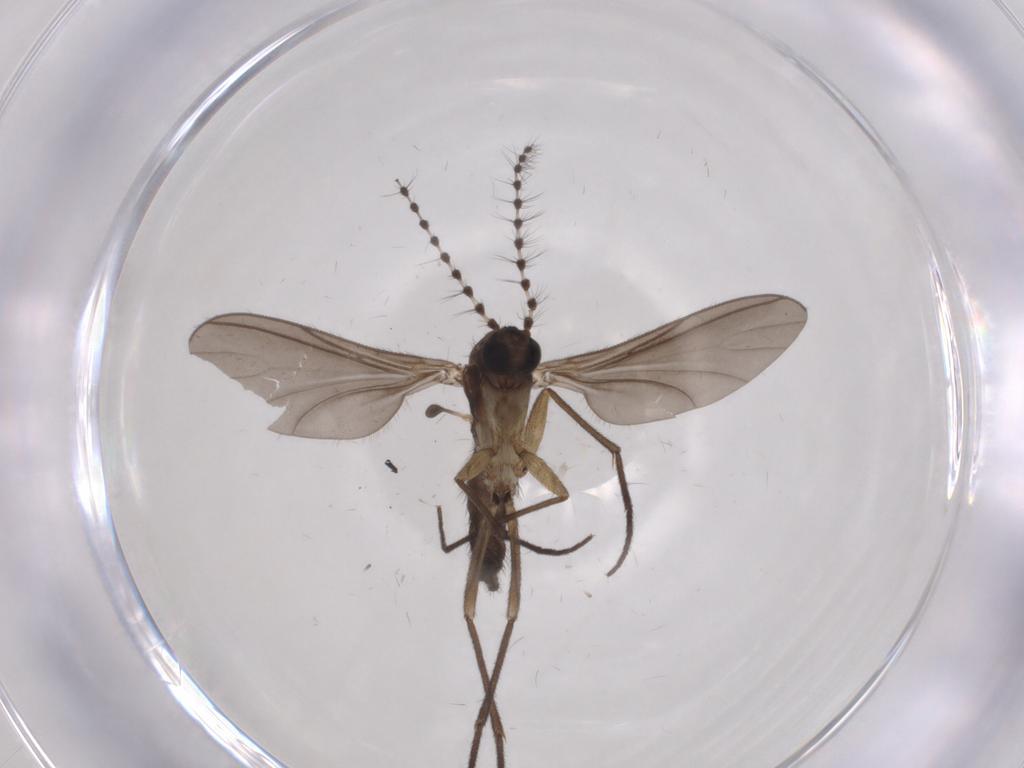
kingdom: Animalia
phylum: Arthropoda
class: Insecta
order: Diptera
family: Sciaridae
